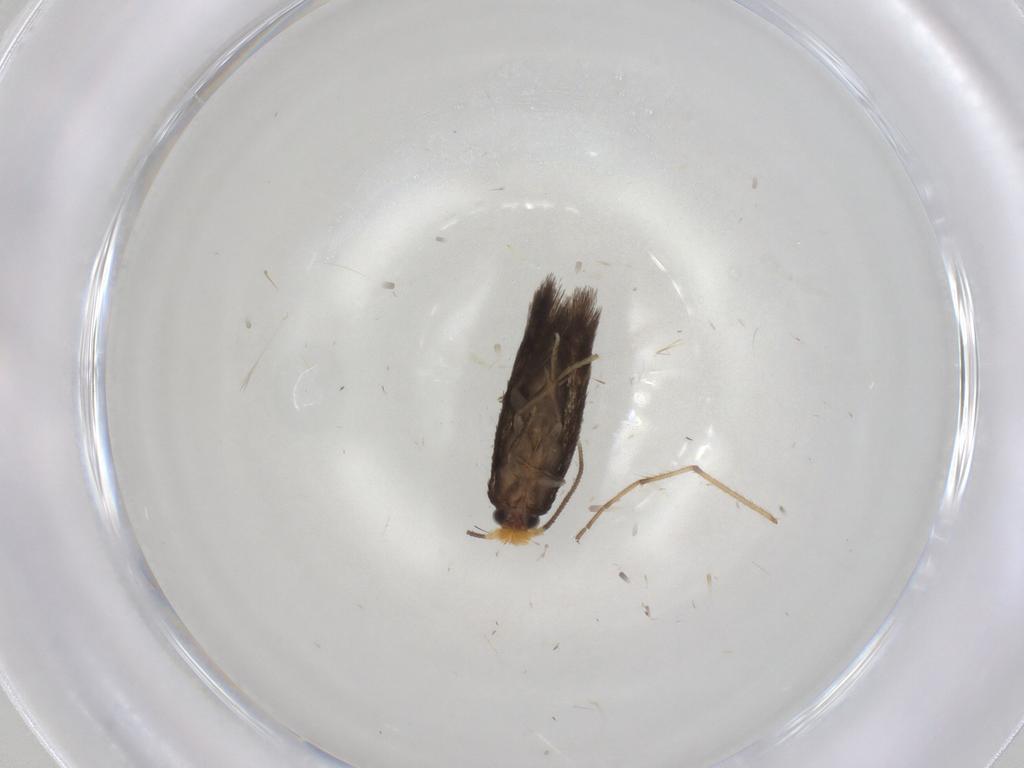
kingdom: Animalia
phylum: Arthropoda
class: Insecta
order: Lepidoptera
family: Nepticulidae
